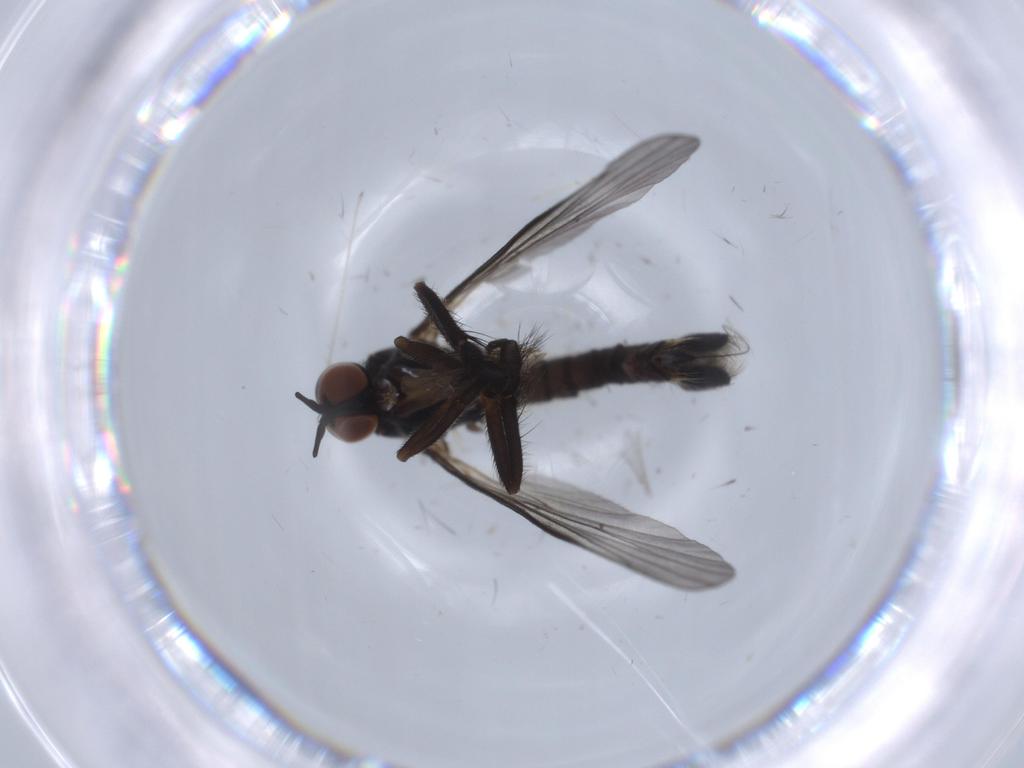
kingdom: Animalia
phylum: Arthropoda
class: Insecta
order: Diptera
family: Empididae
